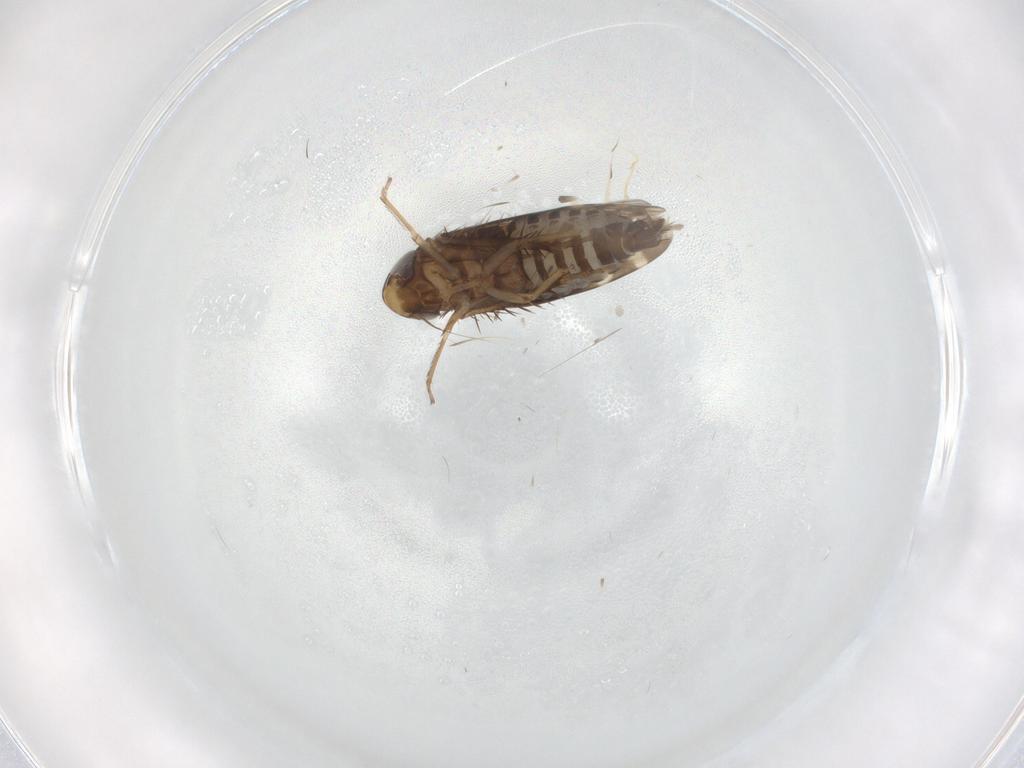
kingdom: Animalia
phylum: Arthropoda
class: Insecta
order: Hemiptera
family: Cicadellidae
